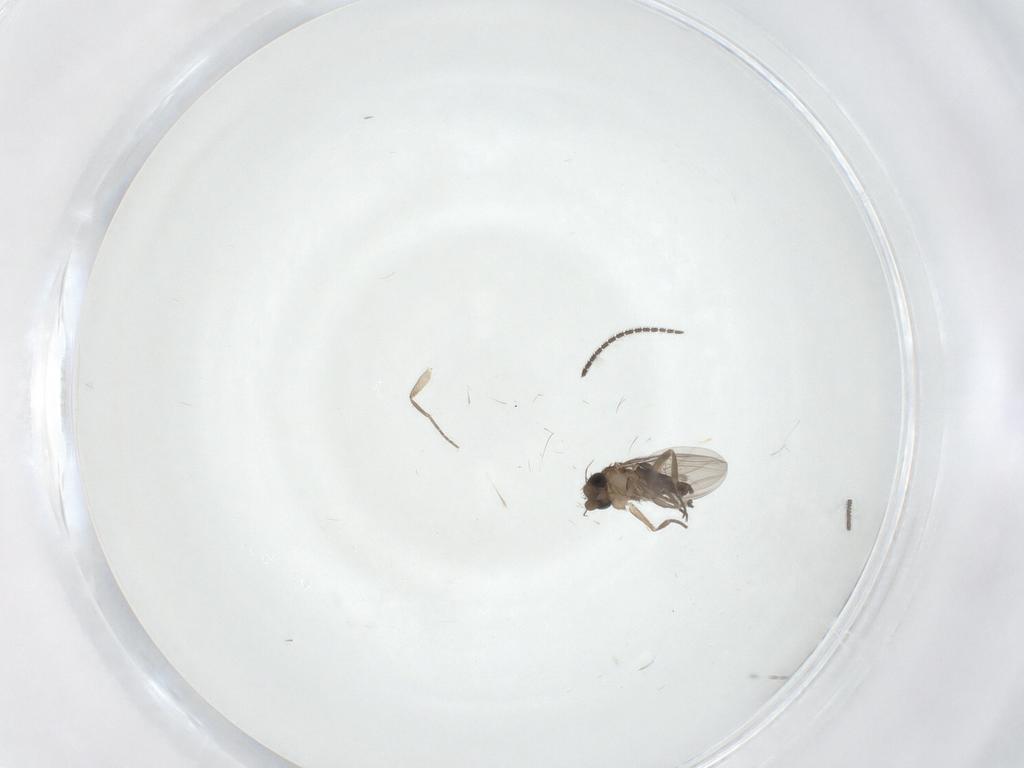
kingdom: Animalia
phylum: Arthropoda
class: Insecta
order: Diptera
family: Sciaridae
